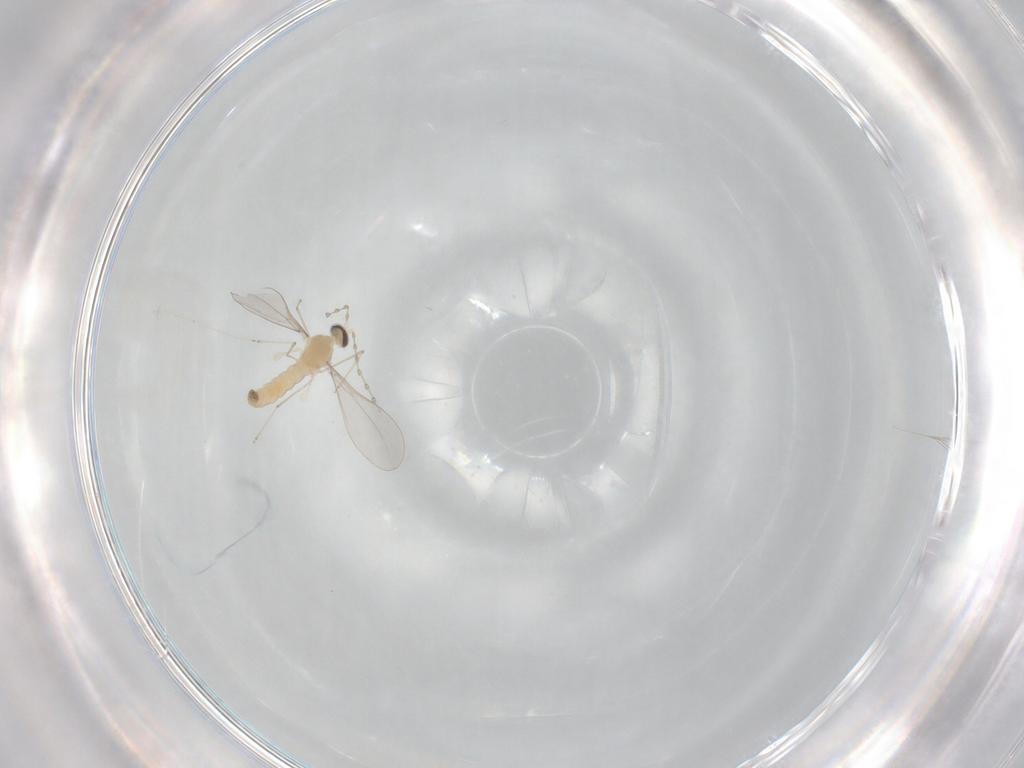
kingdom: Animalia
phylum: Arthropoda
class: Insecta
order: Diptera
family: Cecidomyiidae
